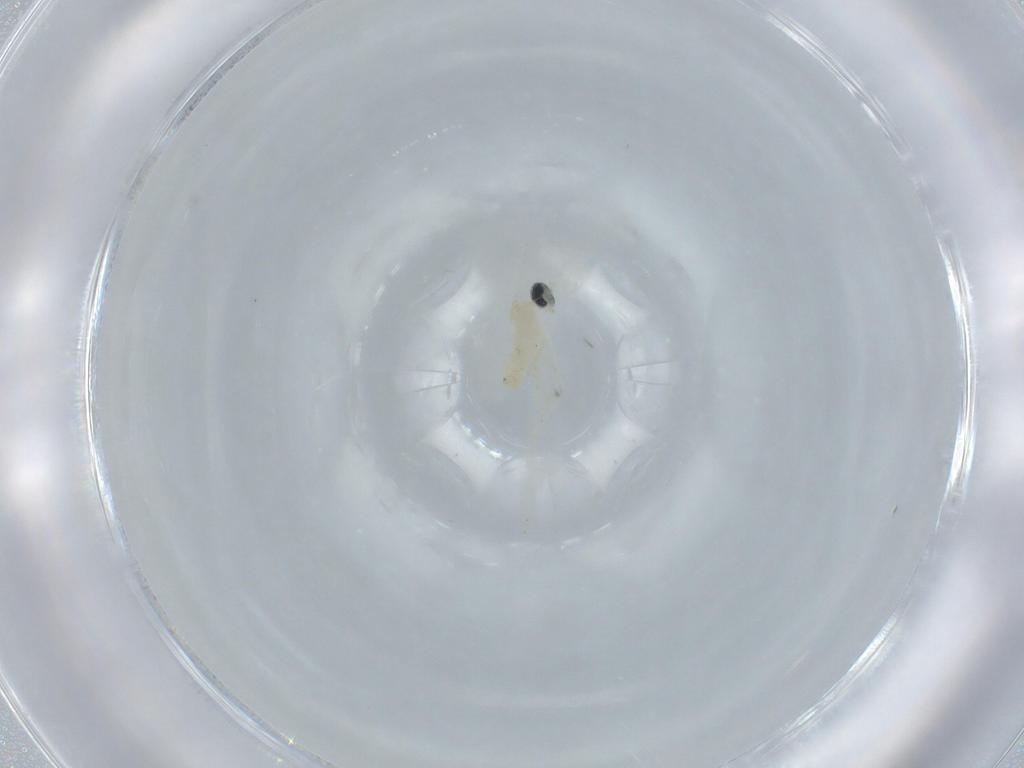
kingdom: Animalia
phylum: Arthropoda
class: Insecta
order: Diptera
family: Cecidomyiidae
